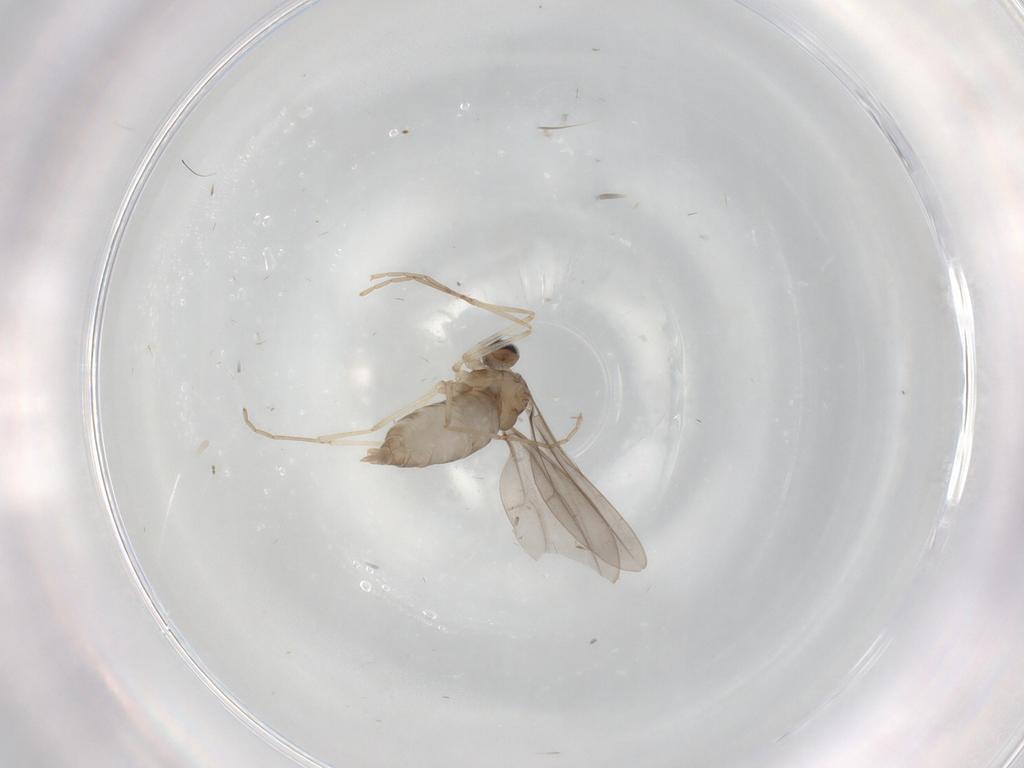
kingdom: Animalia
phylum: Arthropoda
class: Insecta
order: Diptera
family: Cecidomyiidae
